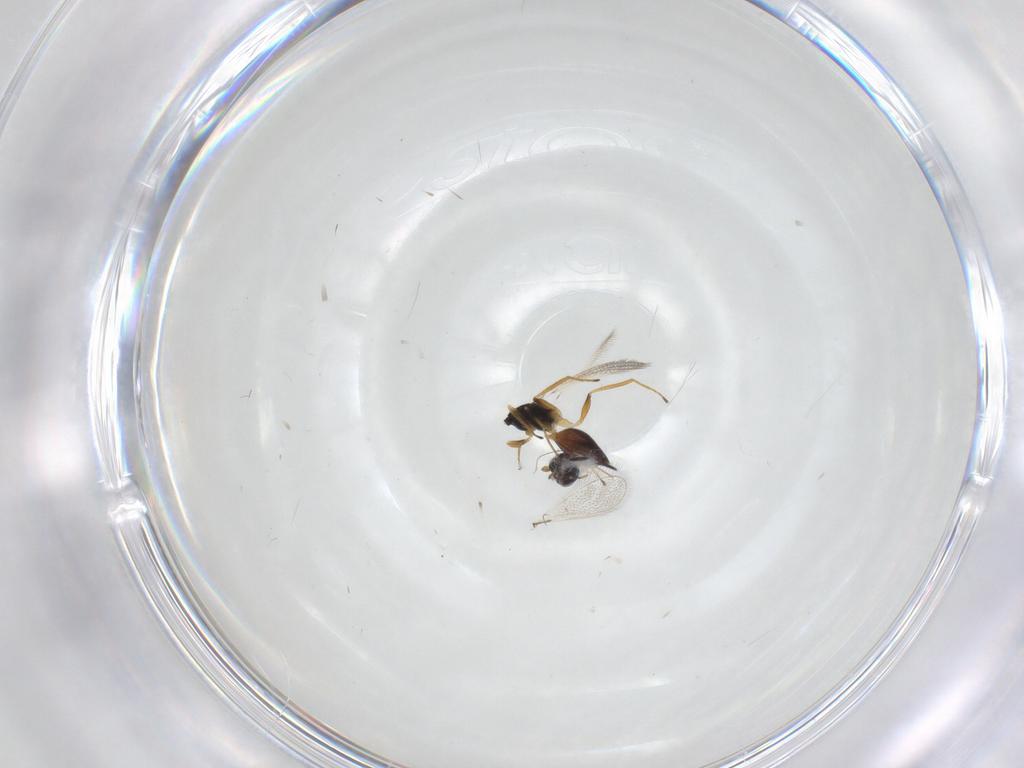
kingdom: Animalia
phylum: Arthropoda
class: Insecta
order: Hymenoptera
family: Mymaridae
